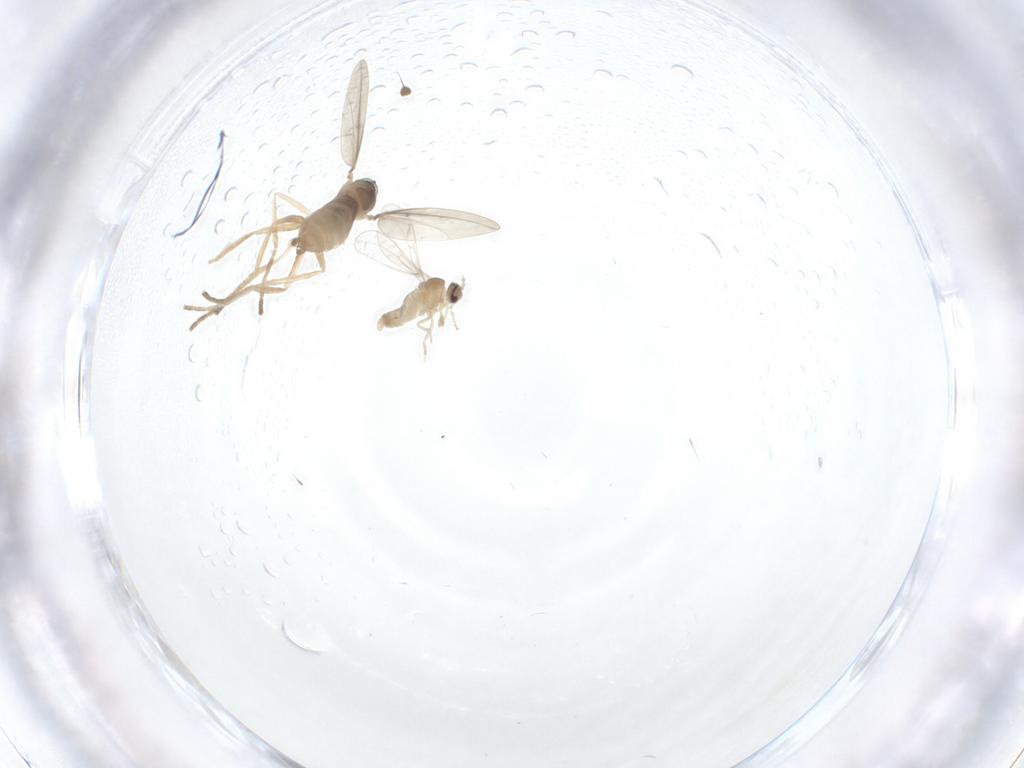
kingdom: Animalia
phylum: Arthropoda
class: Insecta
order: Diptera
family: Phoridae
